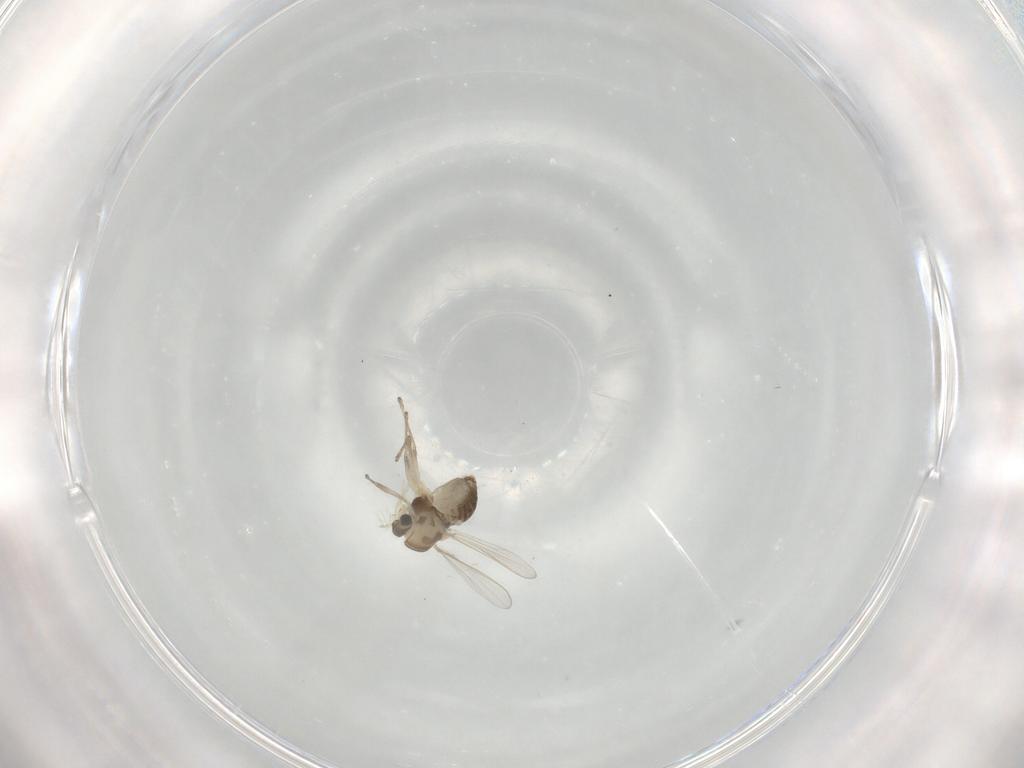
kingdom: Animalia
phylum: Arthropoda
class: Insecta
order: Diptera
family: Chironomidae
